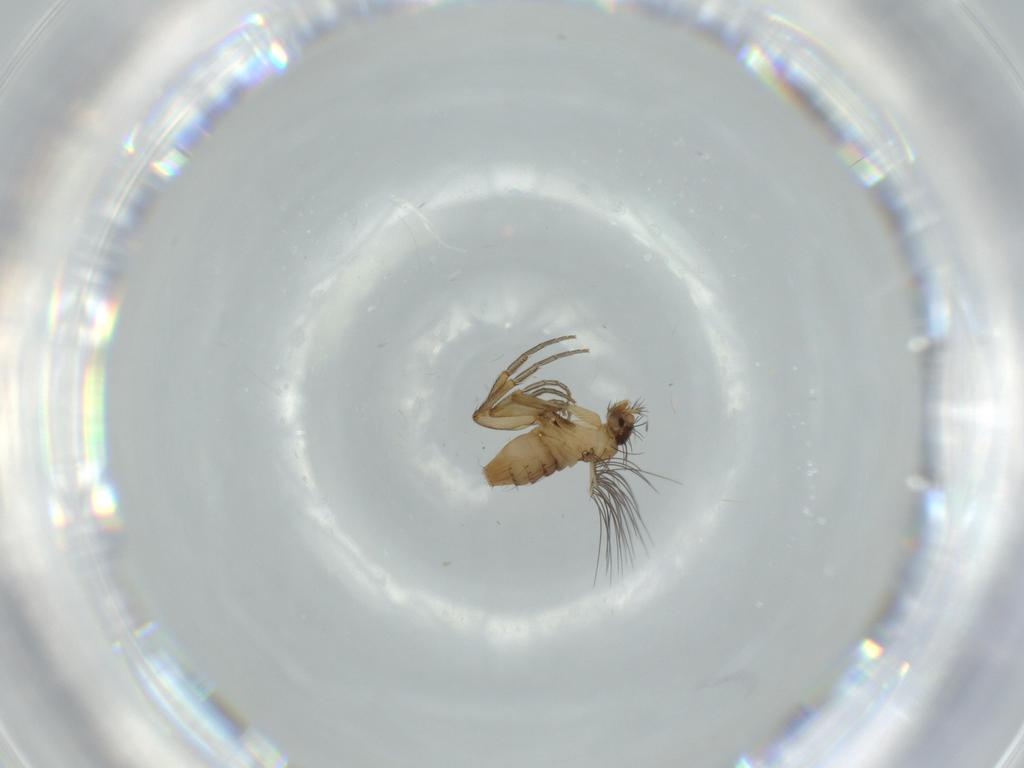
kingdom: Animalia
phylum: Arthropoda
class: Insecta
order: Diptera
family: Phoridae
